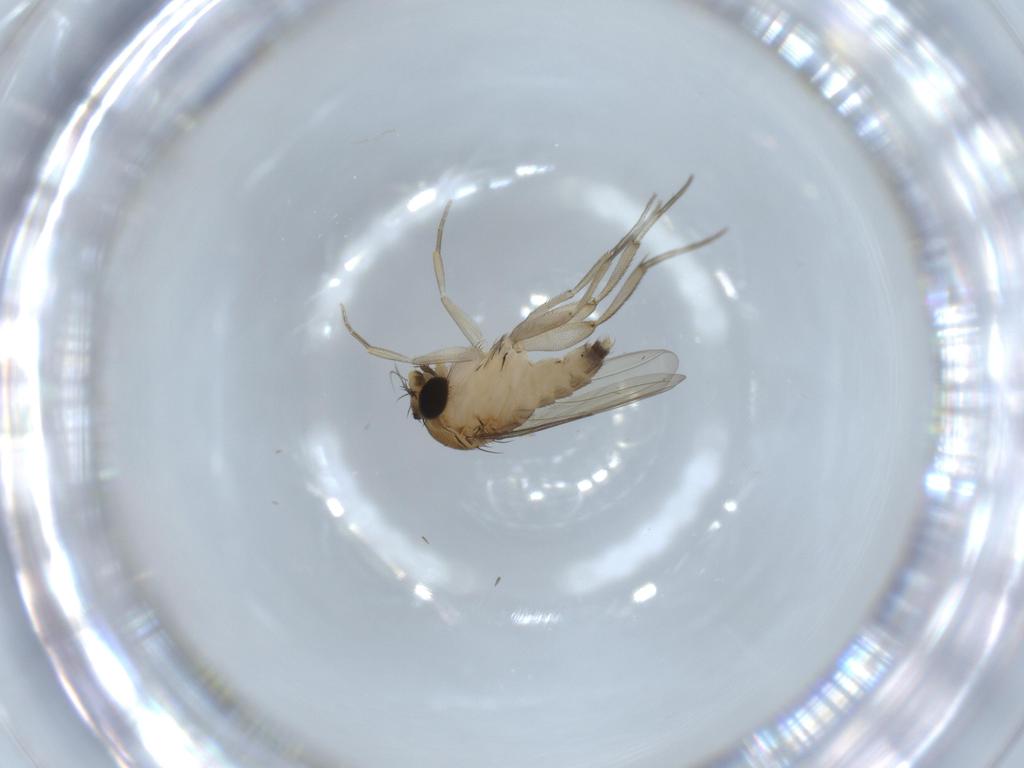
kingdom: Animalia
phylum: Arthropoda
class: Insecta
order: Diptera
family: Phoridae
